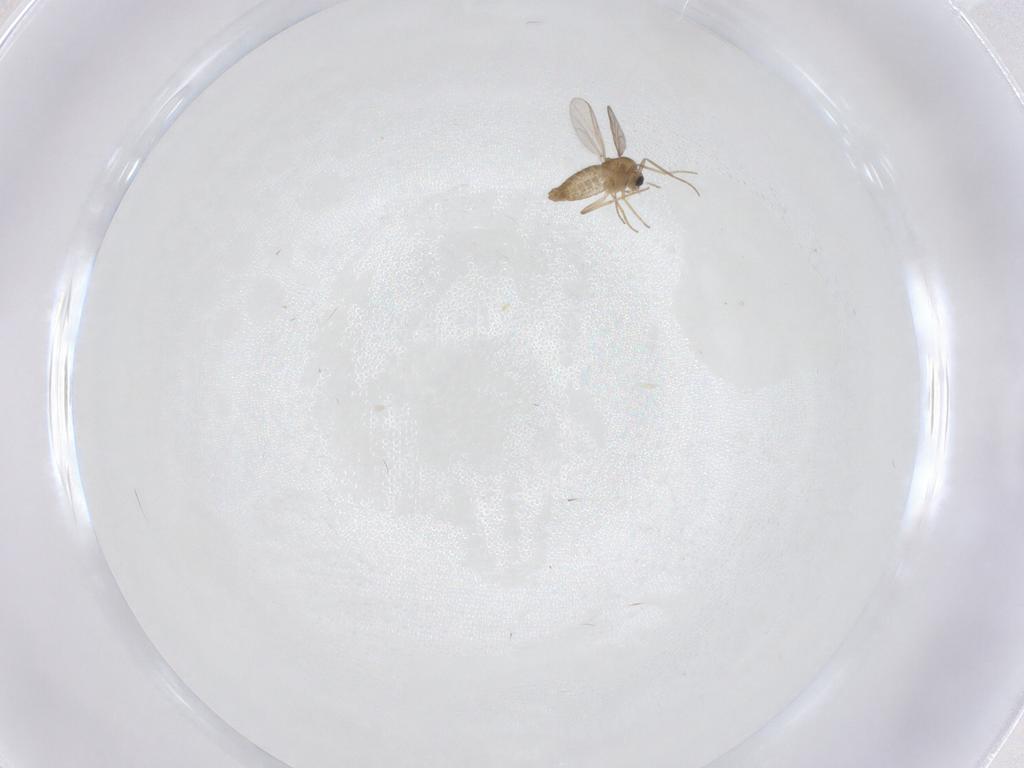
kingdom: Animalia
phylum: Arthropoda
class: Insecta
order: Diptera
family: Chironomidae
